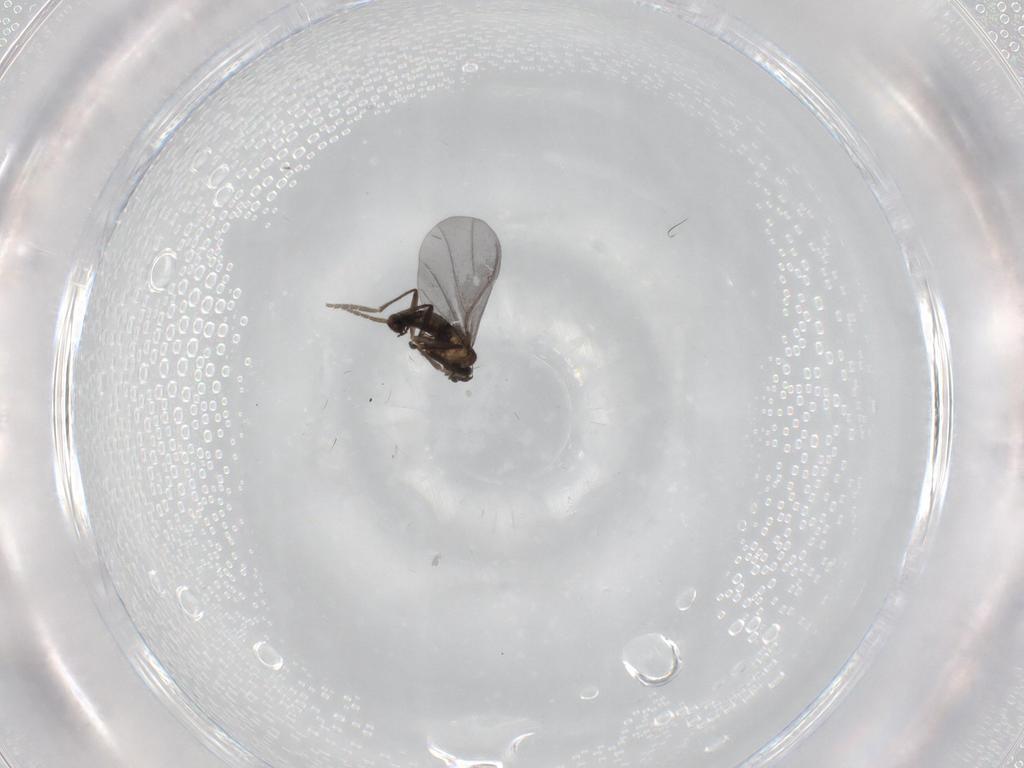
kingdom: Animalia
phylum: Arthropoda
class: Insecta
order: Diptera
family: Phoridae
